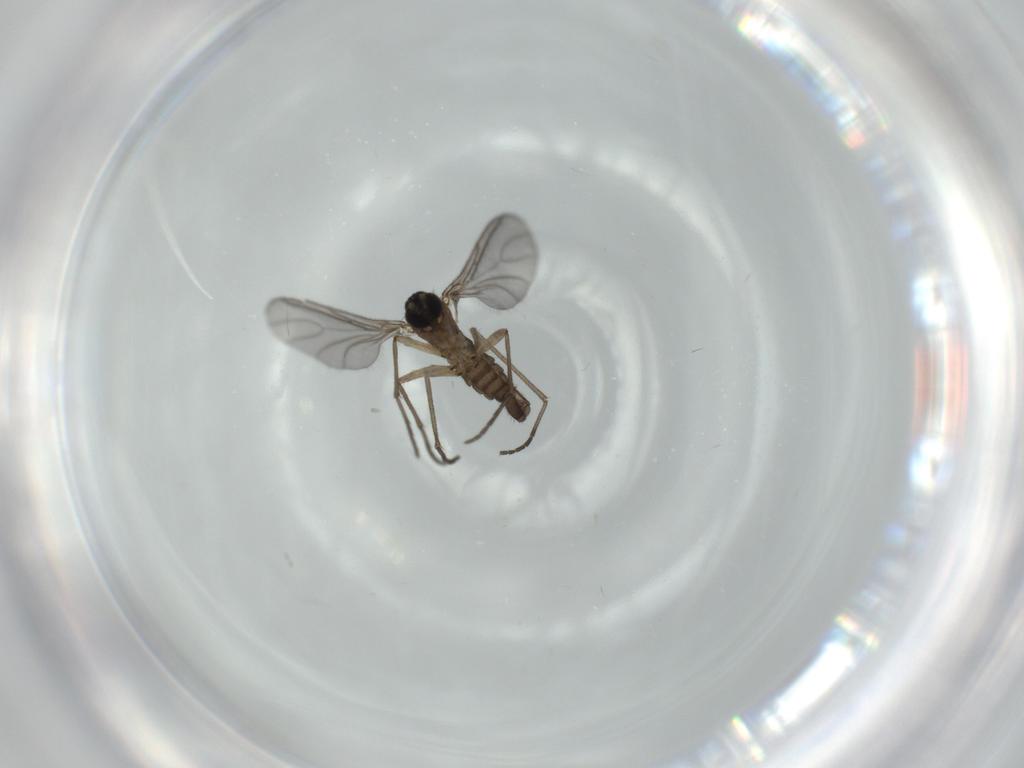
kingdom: Animalia
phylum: Arthropoda
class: Insecta
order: Diptera
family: Sciaridae
